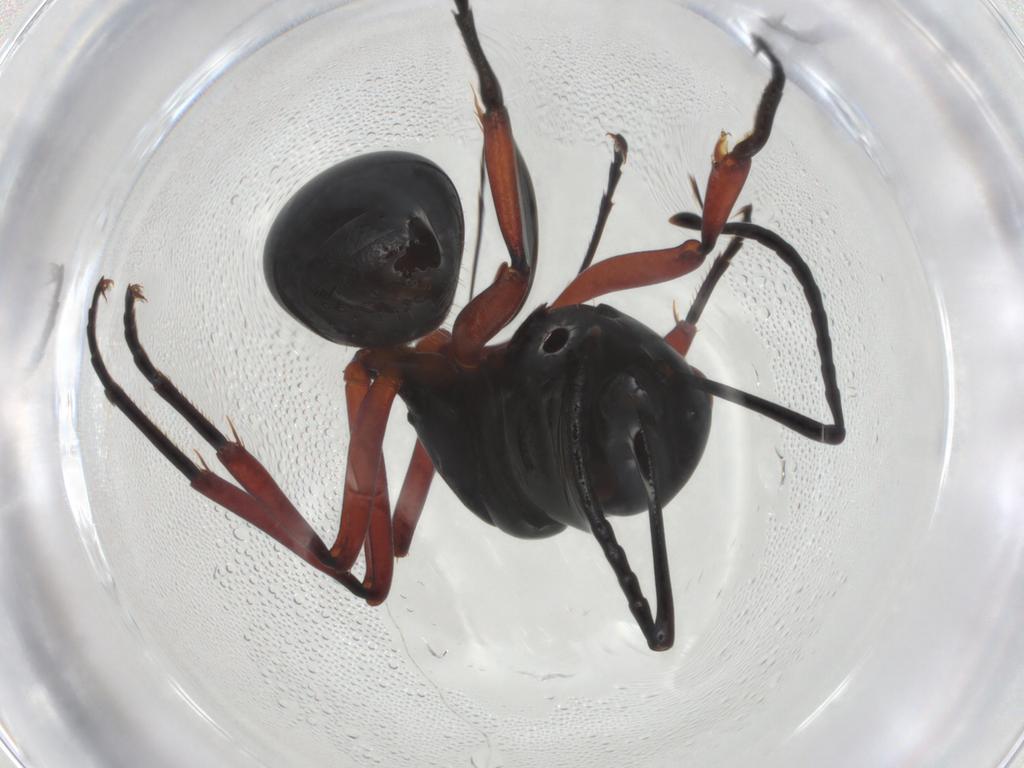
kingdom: Animalia
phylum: Arthropoda
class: Insecta
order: Hymenoptera
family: Formicidae
